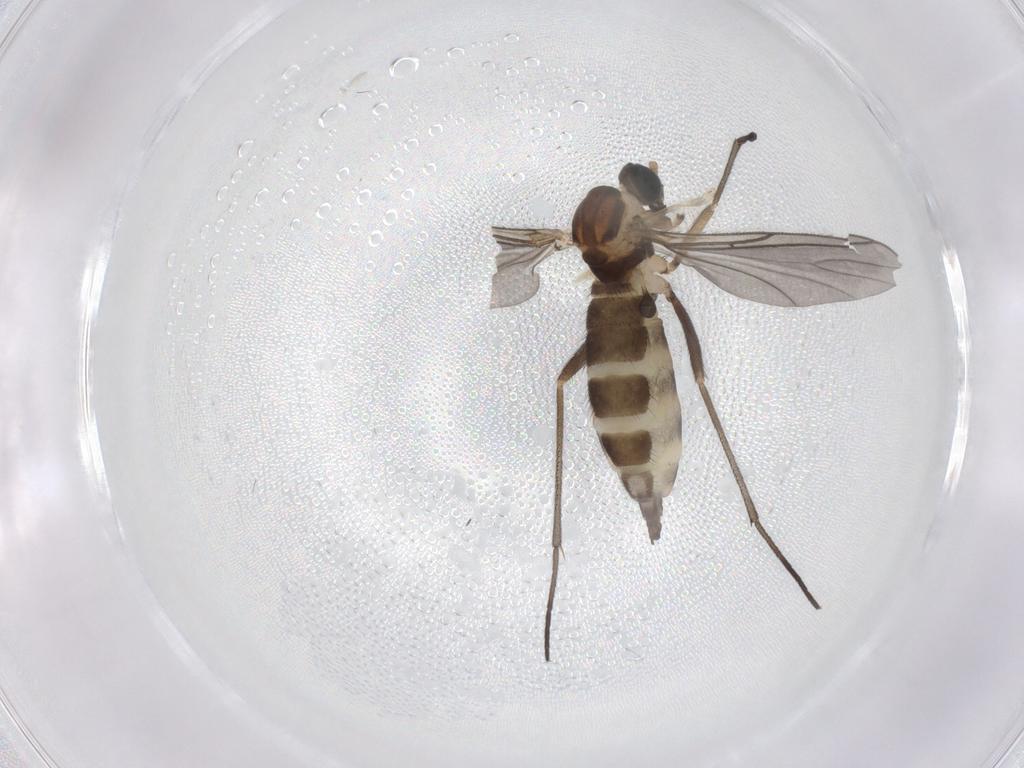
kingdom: Animalia
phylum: Arthropoda
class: Insecta
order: Diptera
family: Sciaridae
